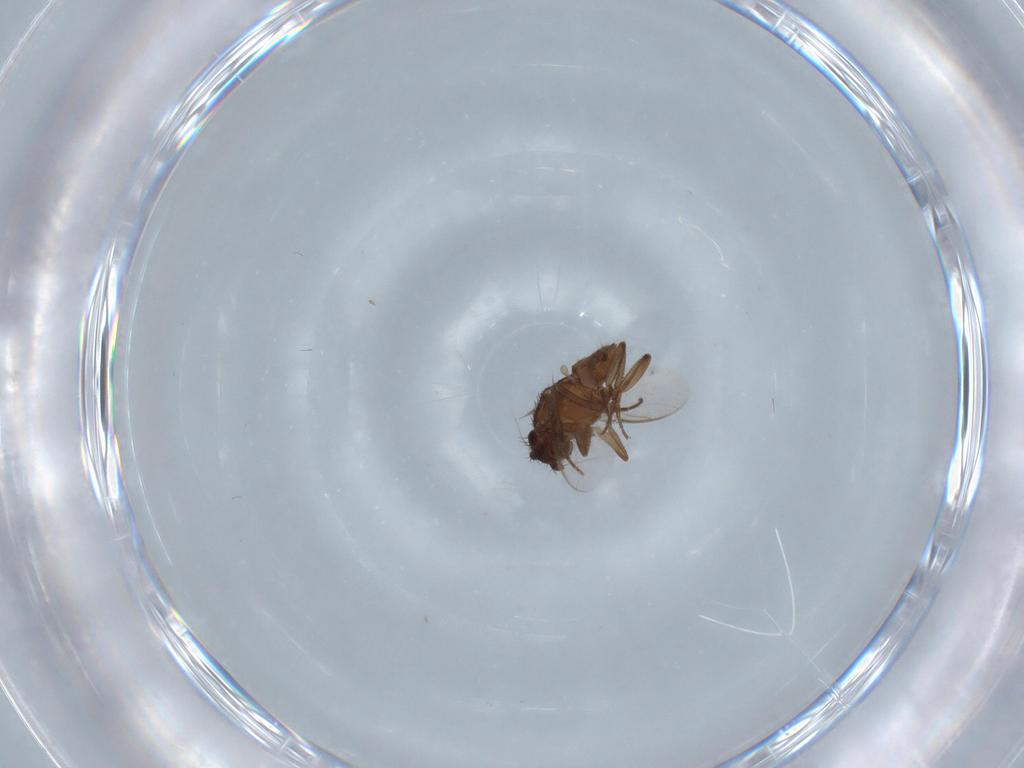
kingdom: Animalia
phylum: Arthropoda
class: Insecta
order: Diptera
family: Sphaeroceridae
